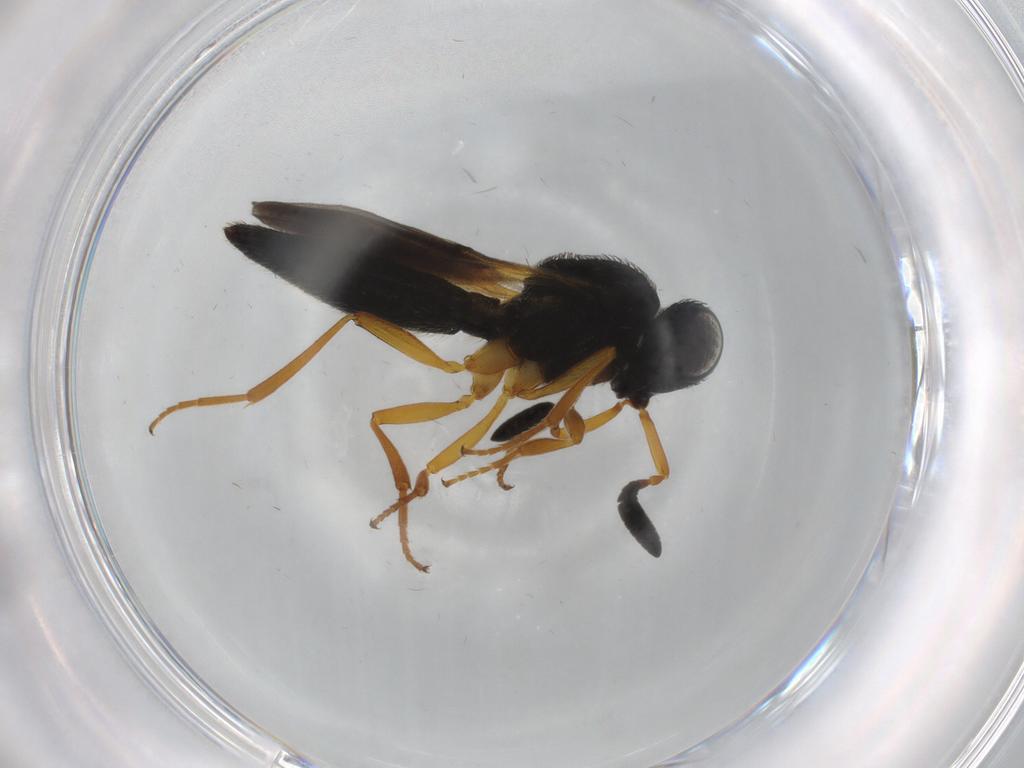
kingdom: Animalia
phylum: Arthropoda
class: Insecta
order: Hymenoptera
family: Scelionidae
